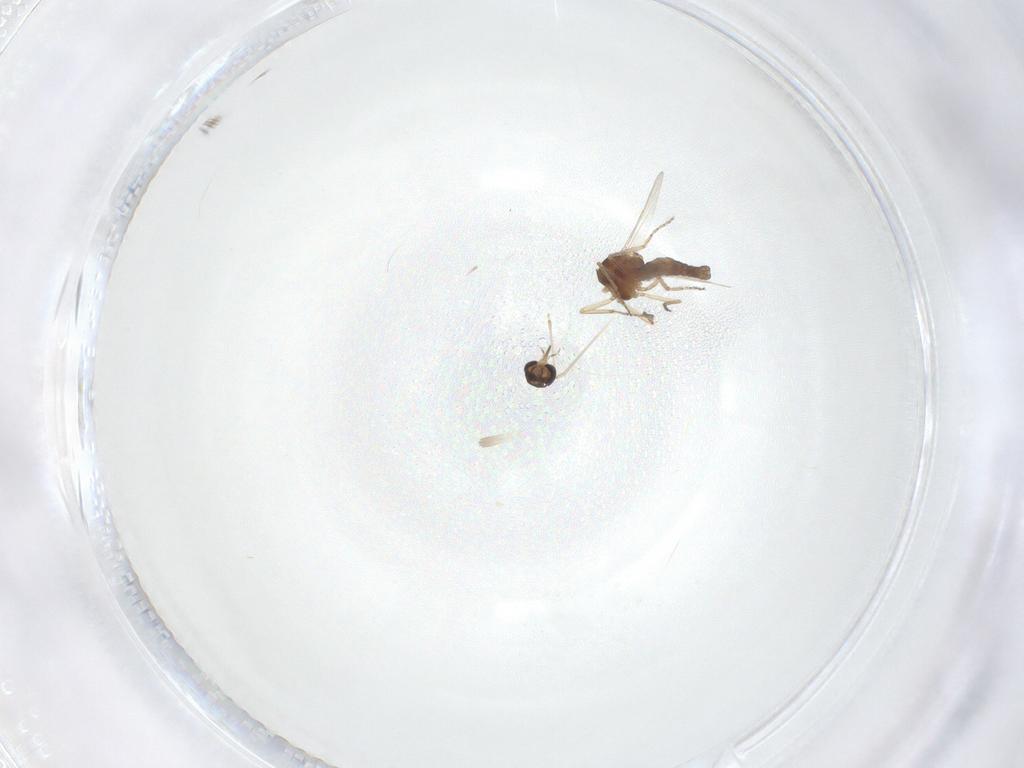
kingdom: Animalia
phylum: Arthropoda
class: Insecta
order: Diptera
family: Ceratopogonidae
